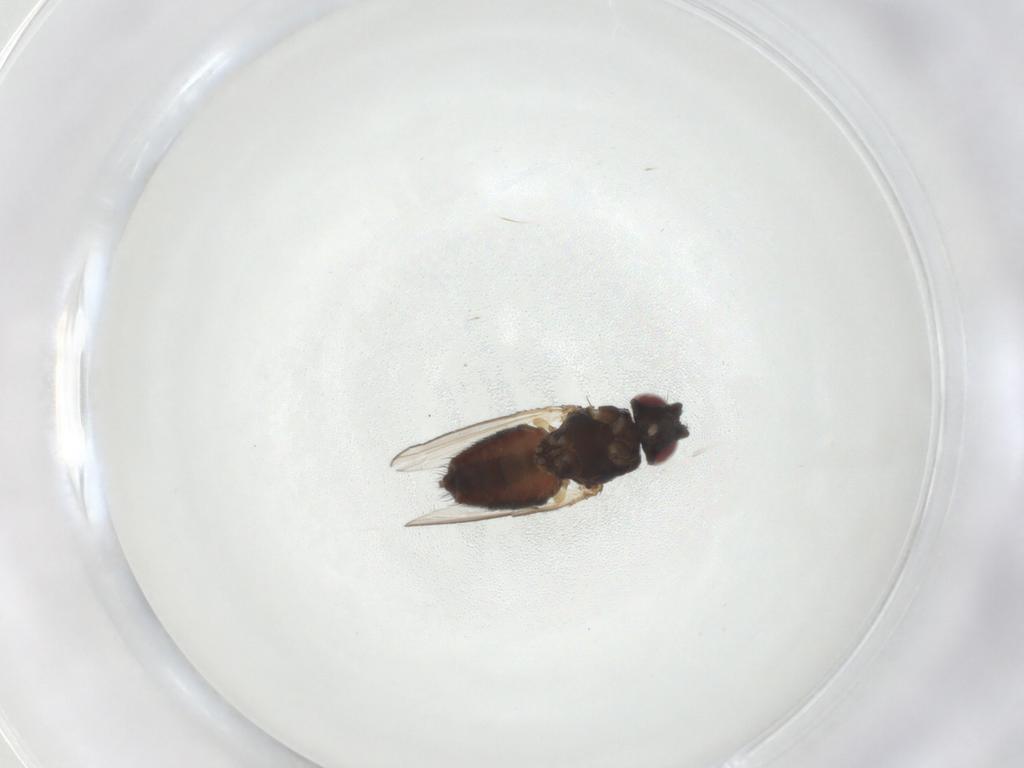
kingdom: Animalia
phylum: Arthropoda
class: Insecta
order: Diptera
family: Milichiidae
